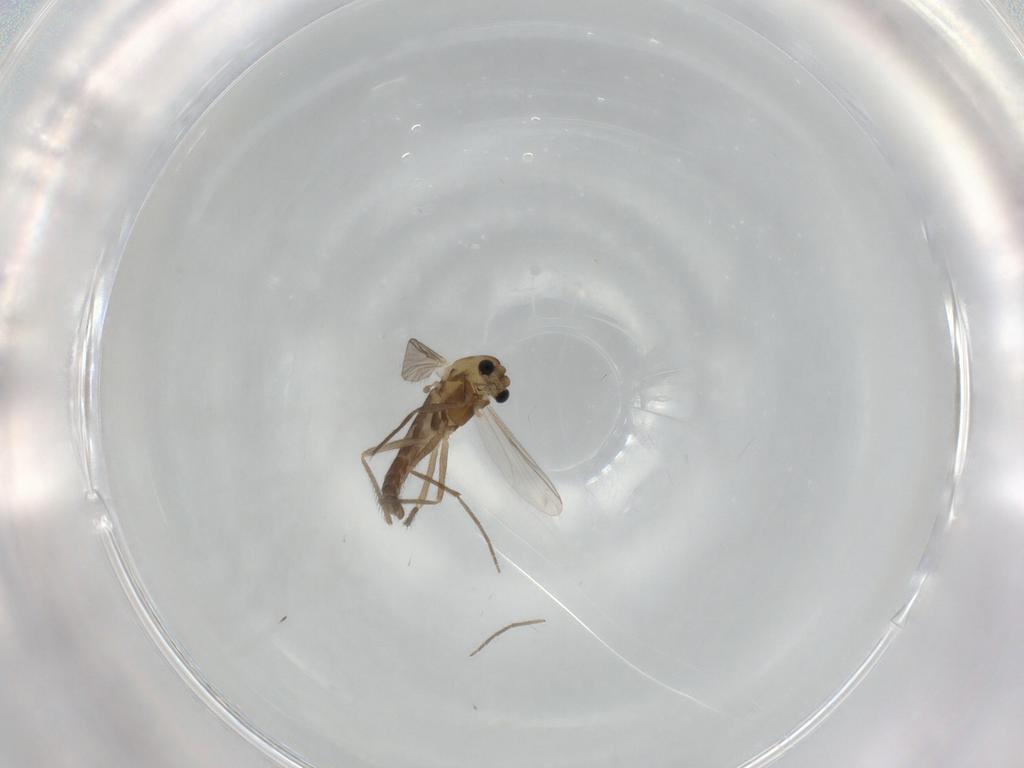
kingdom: Animalia
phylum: Arthropoda
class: Insecta
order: Diptera
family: Chironomidae
